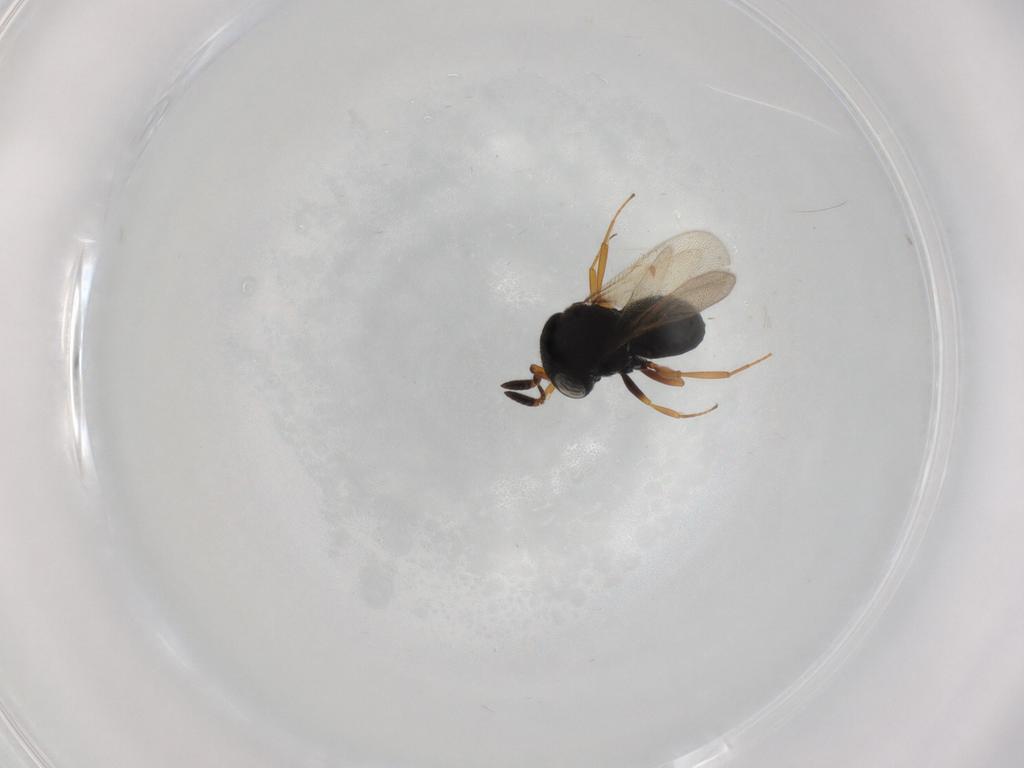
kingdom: Animalia
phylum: Arthropoda
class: Insecta
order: Hymenoptera
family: Scelionidae
